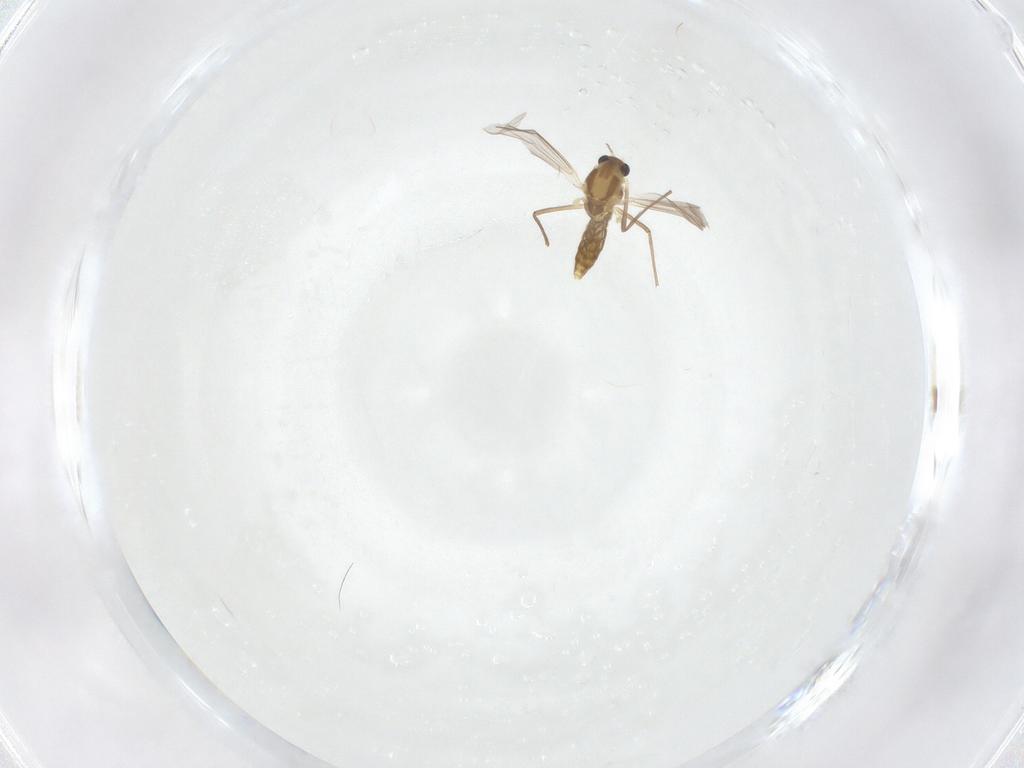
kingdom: Animalia
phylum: Arthropoda
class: Insecta
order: Diptera
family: Chironomidae
